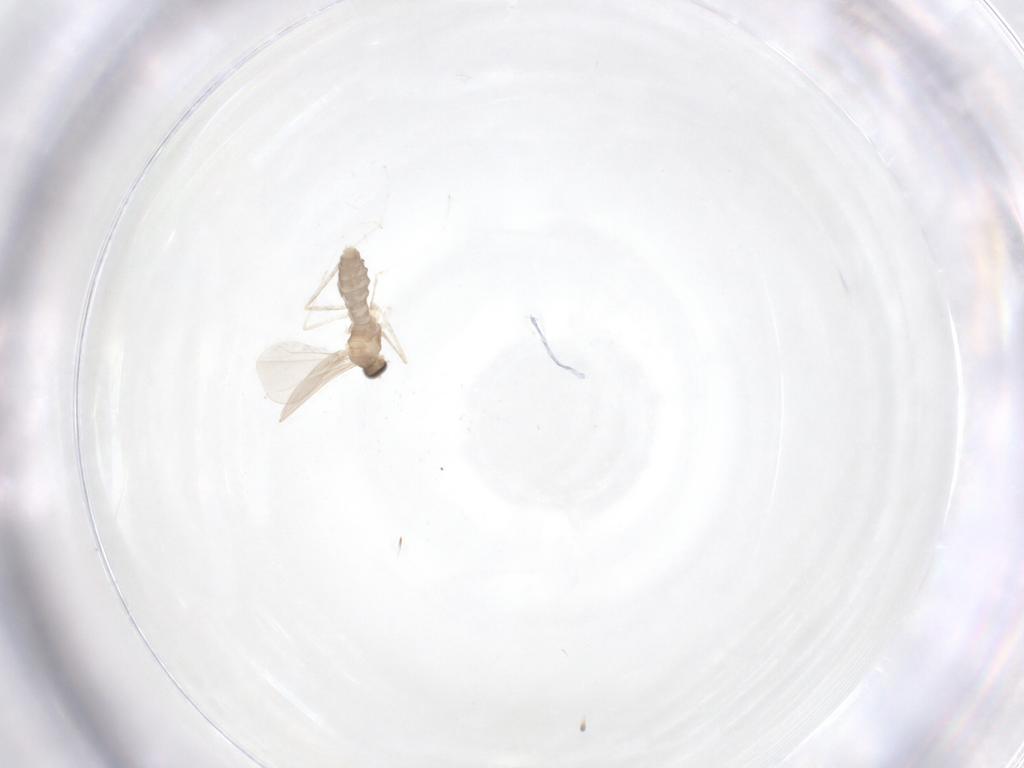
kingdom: Animalia
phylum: Arthropoda
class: Insecta
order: Diptera
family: Cecidomyiidae
